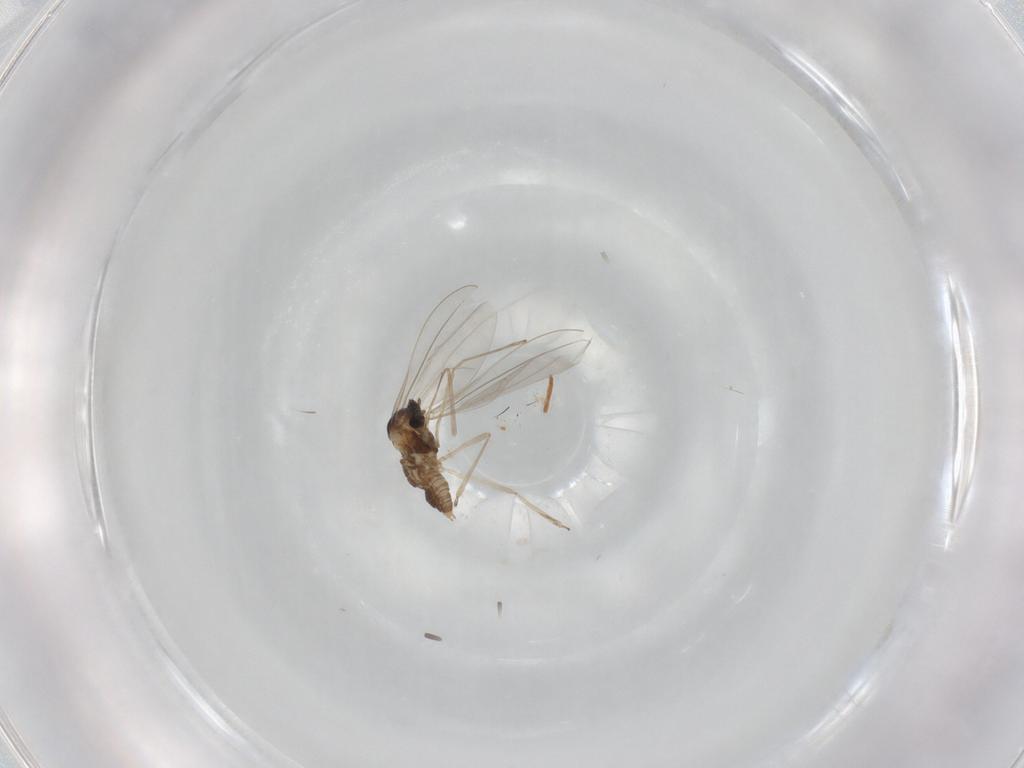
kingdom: Animalia
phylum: Arthropoda
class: Insecta
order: Diptera
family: Cecidomyiidae
